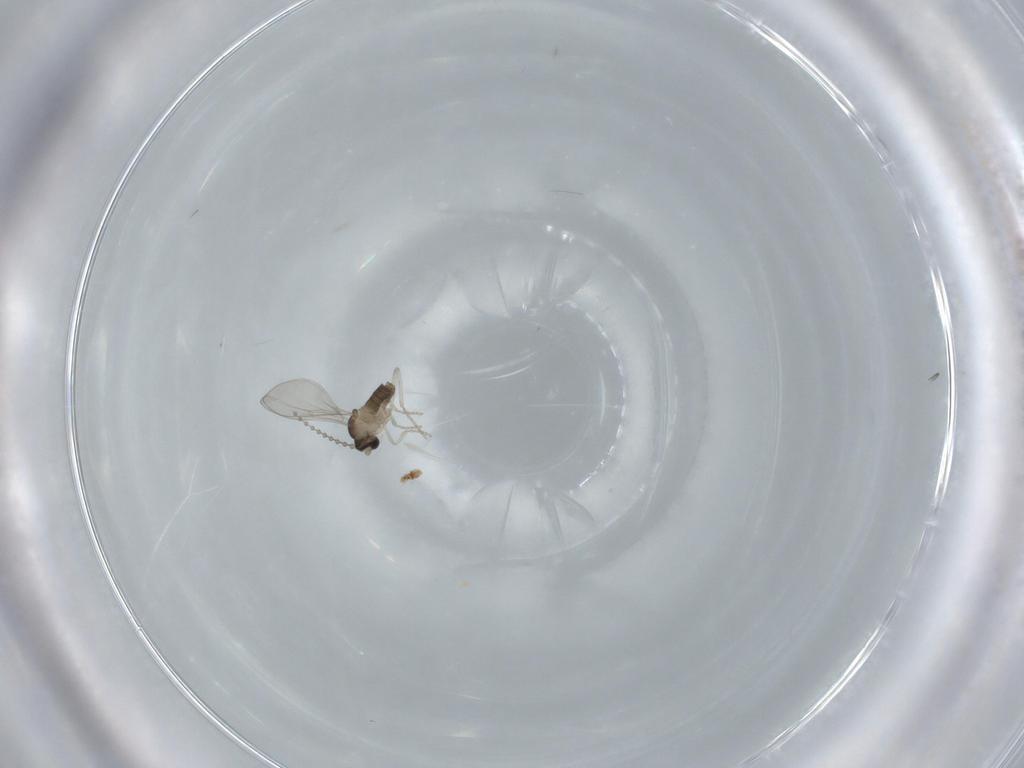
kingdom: Animalia
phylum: Arthropoda
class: Insecta
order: Diptera
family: Cecidomyiidae
